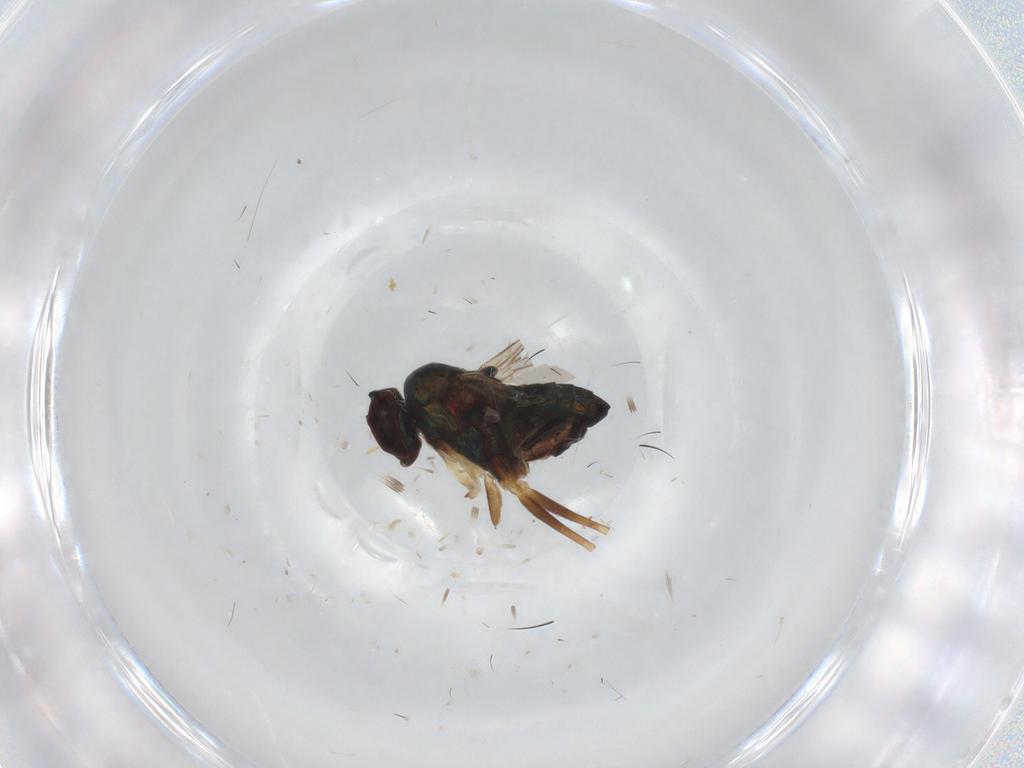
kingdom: Animalia
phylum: Arthropoda
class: Insecta
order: Diptera
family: Dolichopodidae
